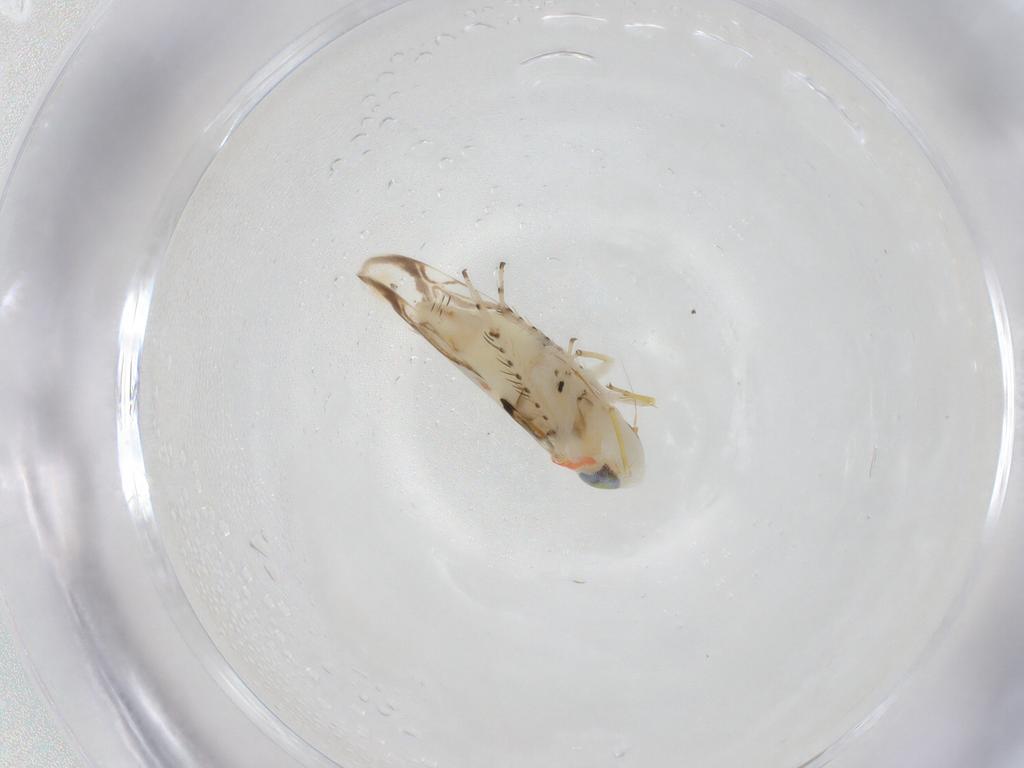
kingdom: Animalia
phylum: Arthropoda
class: Insecta
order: Hemiptera
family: Cicadellidae
